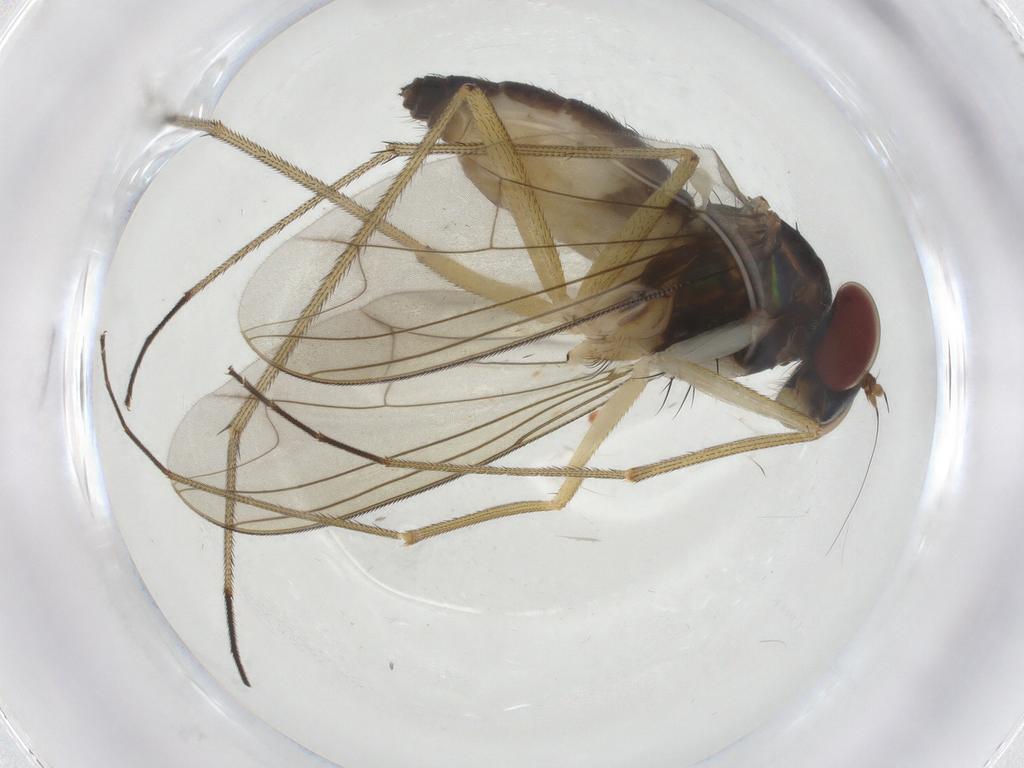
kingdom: Animalia
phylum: Arthropoda
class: Insecta
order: Diptera
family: Dolichopodidae
